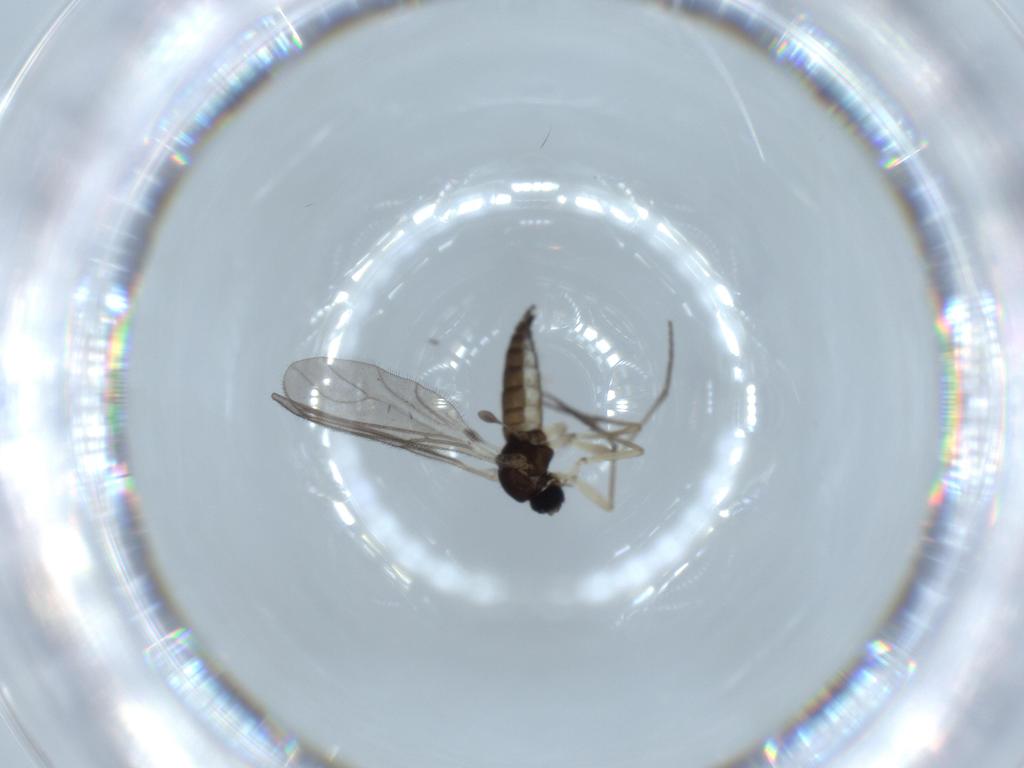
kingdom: Animalia
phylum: Arthropoda
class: Insecta
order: Diptera
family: Sciaridae
